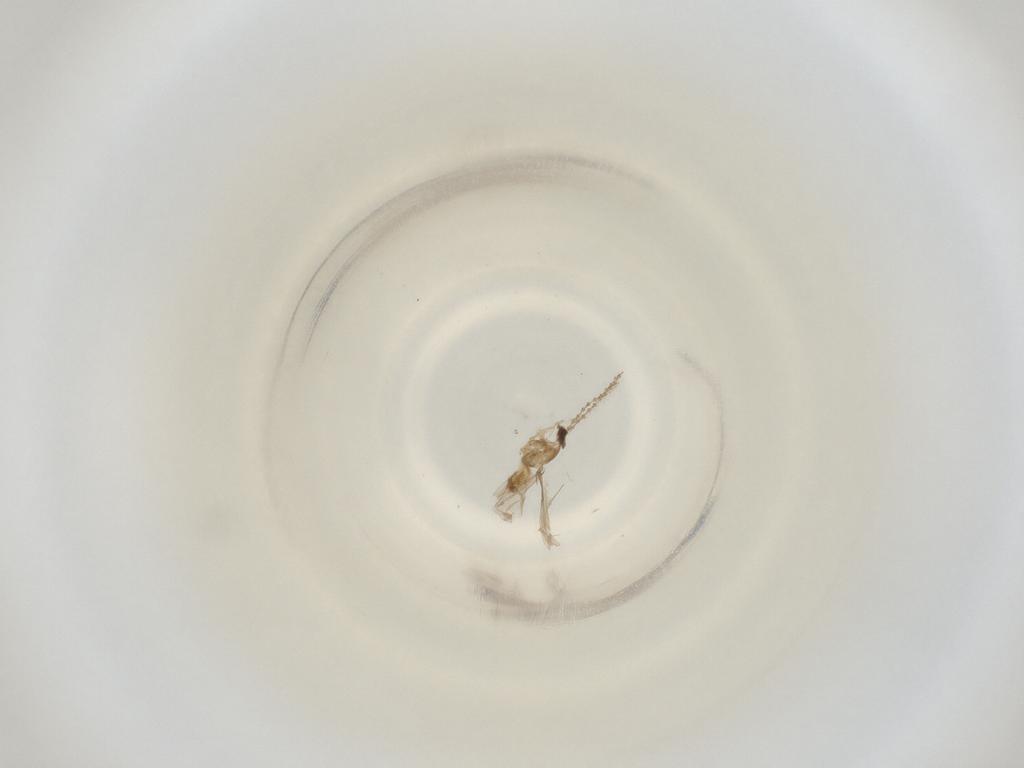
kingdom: Animalia
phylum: Arthropoda
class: Insecta
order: Diptera
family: Cecidomyiidae
